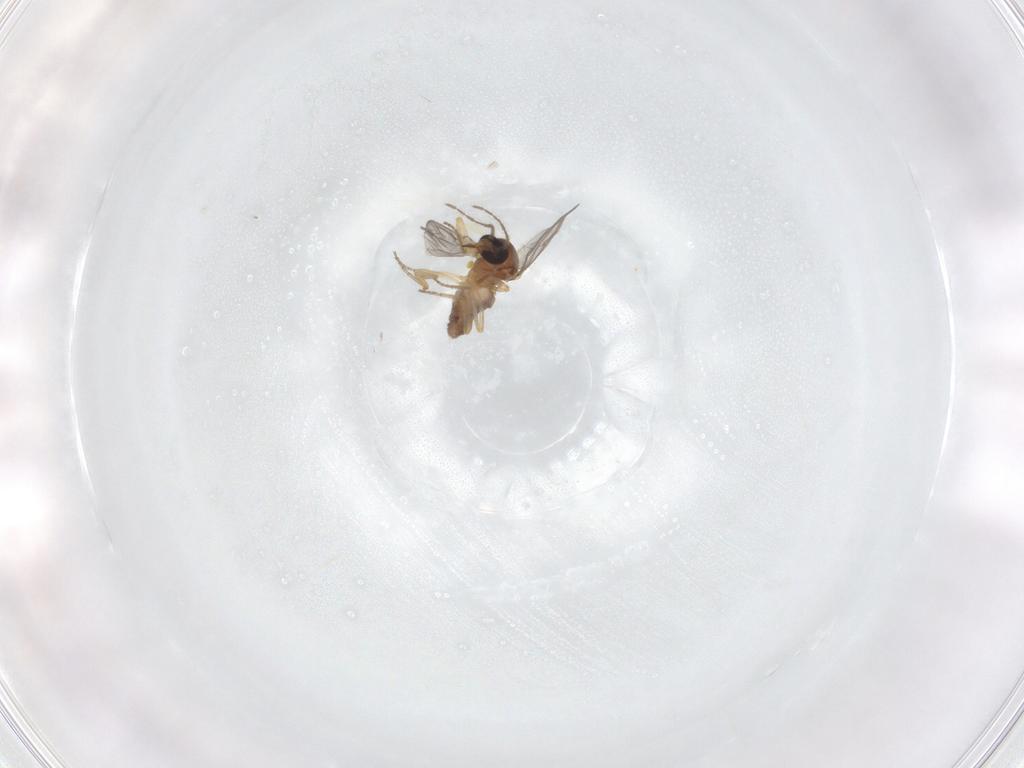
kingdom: Animalia
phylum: Arthropoda
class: Insecta
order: Diptera
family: Ceratopogonidae
